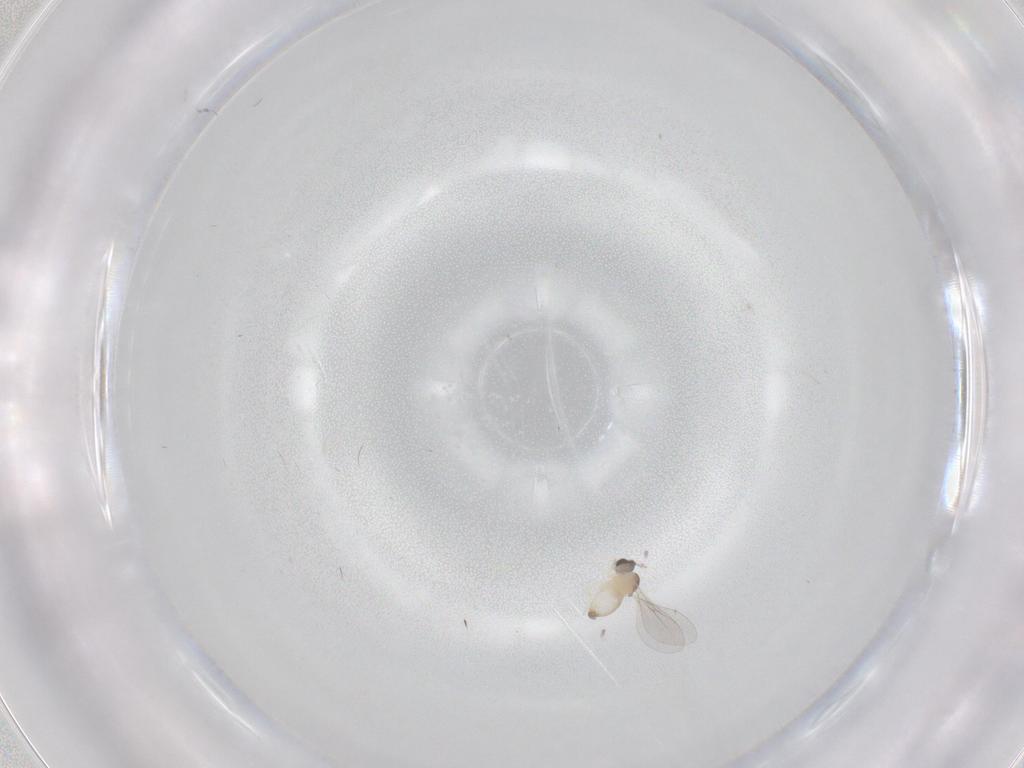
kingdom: Animalia
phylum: Arthropoda
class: Insecta
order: Diptera
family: Cecidomyiidae
